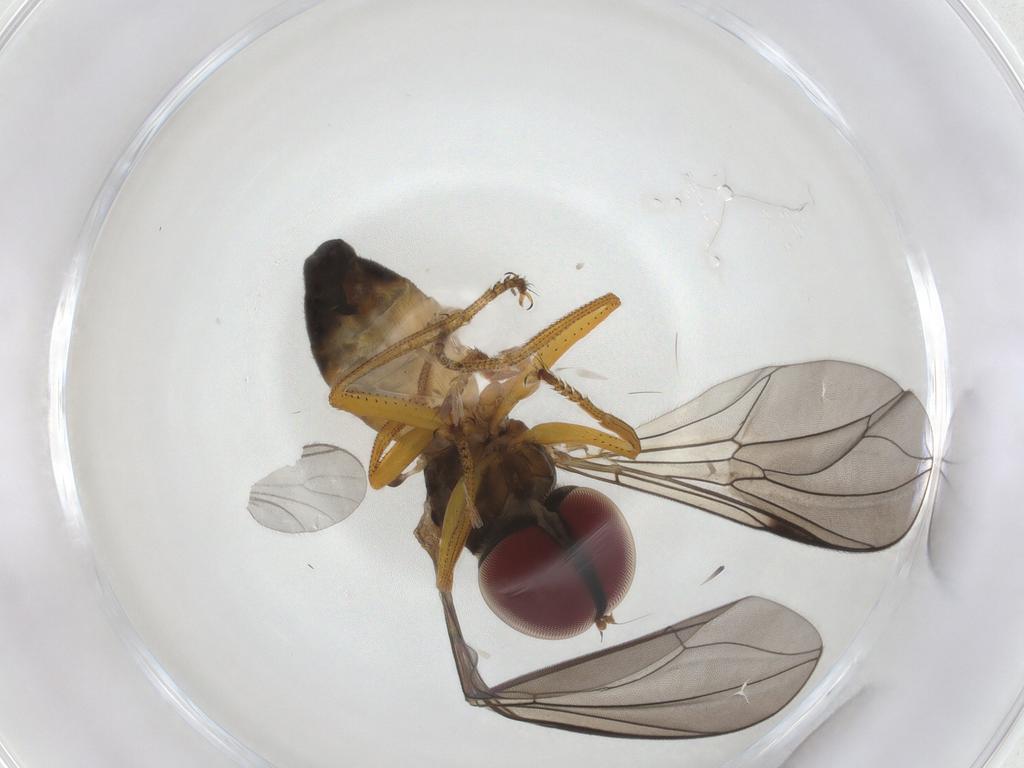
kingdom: Animalia
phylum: Arthropoda
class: Insecta
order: Diptera
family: Pipunculidae
